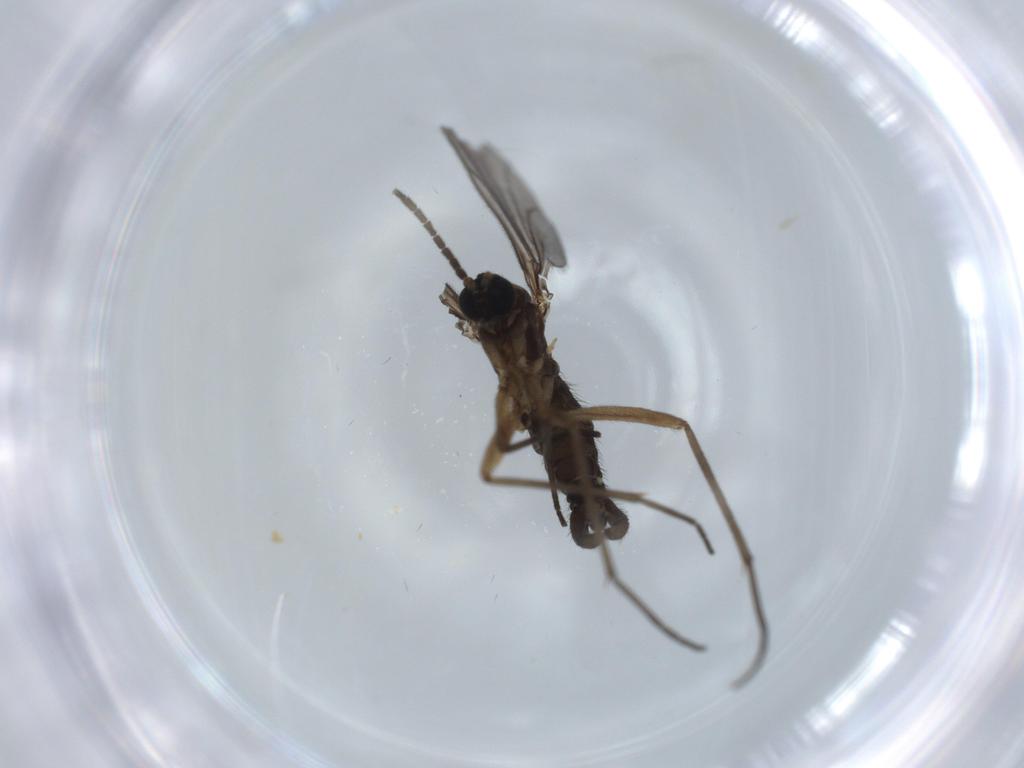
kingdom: Animalia
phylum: Arthropoda
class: Insecta
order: Diptera
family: Sciaridae
